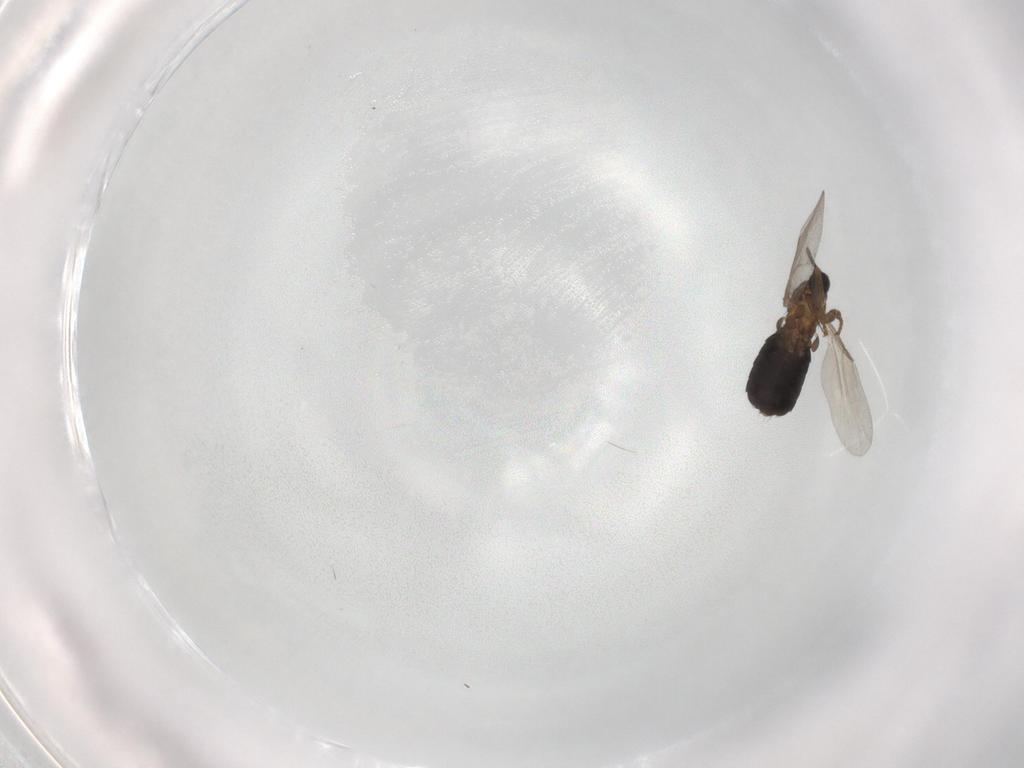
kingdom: Animalia
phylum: Arthropoda
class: Insecta
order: Diptera
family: Scatopsidae
